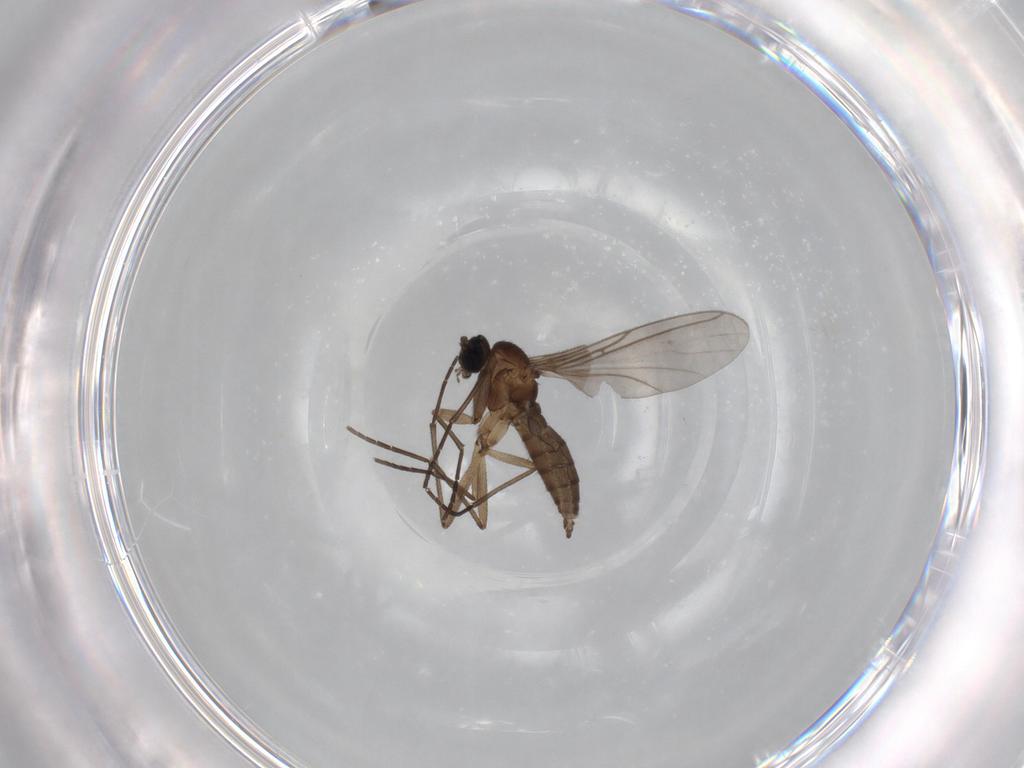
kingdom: Animalia
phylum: Arthropoda
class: Insecta
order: Diptera
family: Sciaridae
